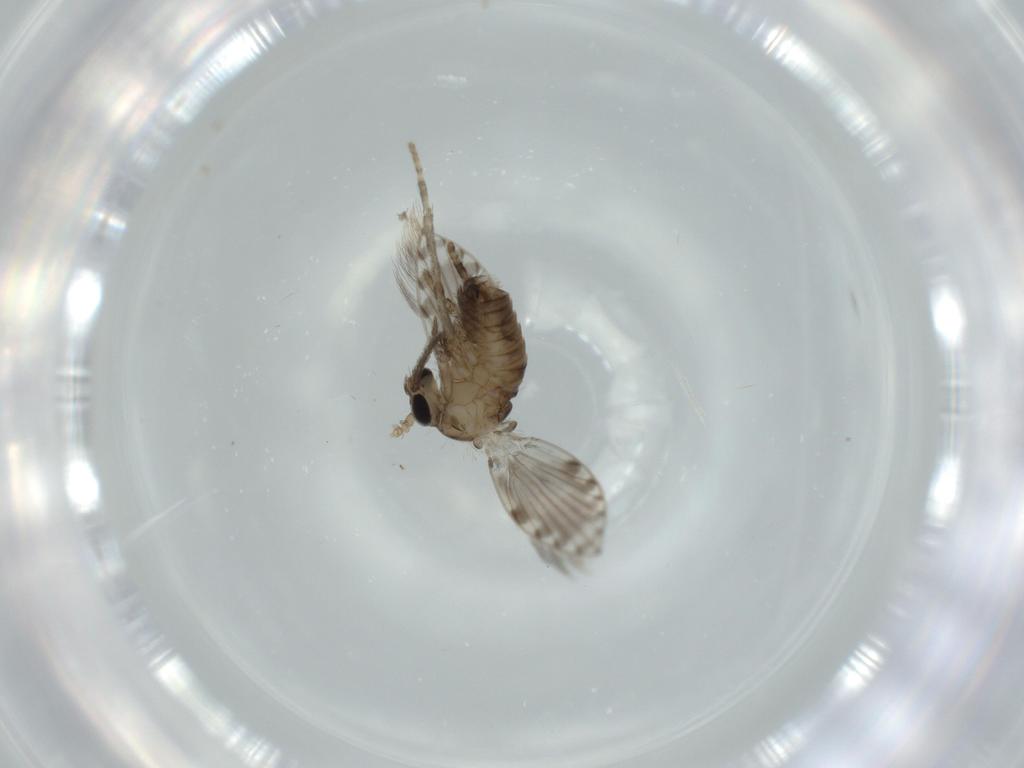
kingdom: Animalia
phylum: Arthropoda
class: Insecta
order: Diptera
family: Psychodidae
